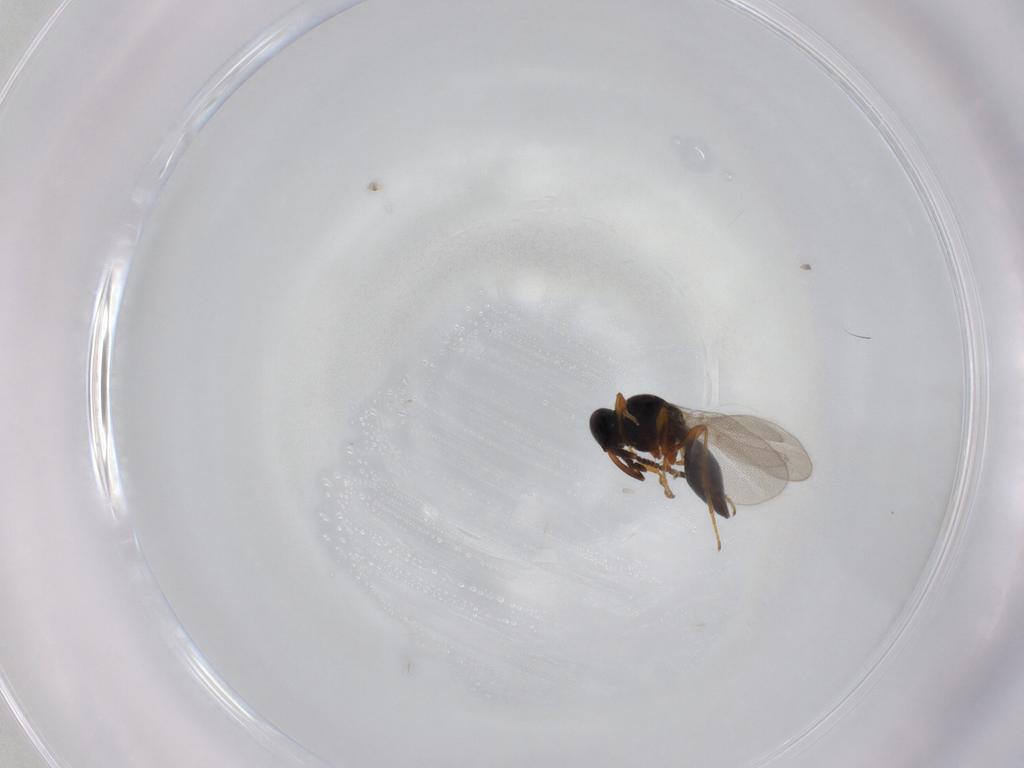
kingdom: Animalia
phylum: Arthropoda
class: Insecta
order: Hymenoptera
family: Platygastridae
